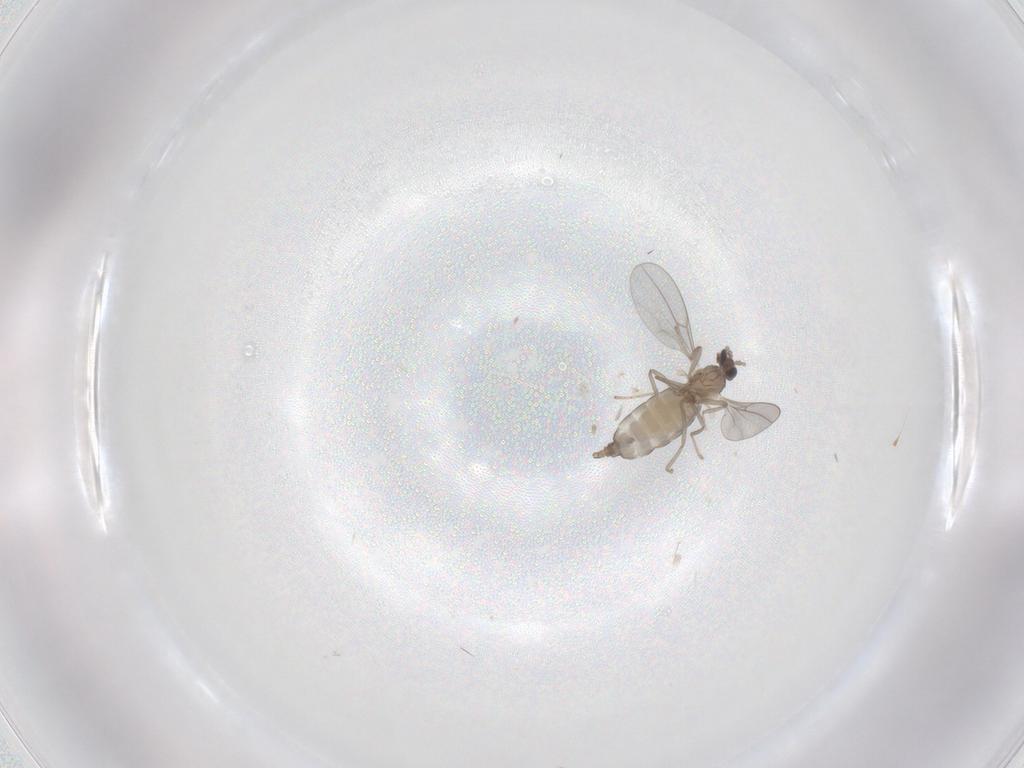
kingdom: Animalia
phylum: Arthropoda
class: Insecta
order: Diptera
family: Cecidomyiidae
